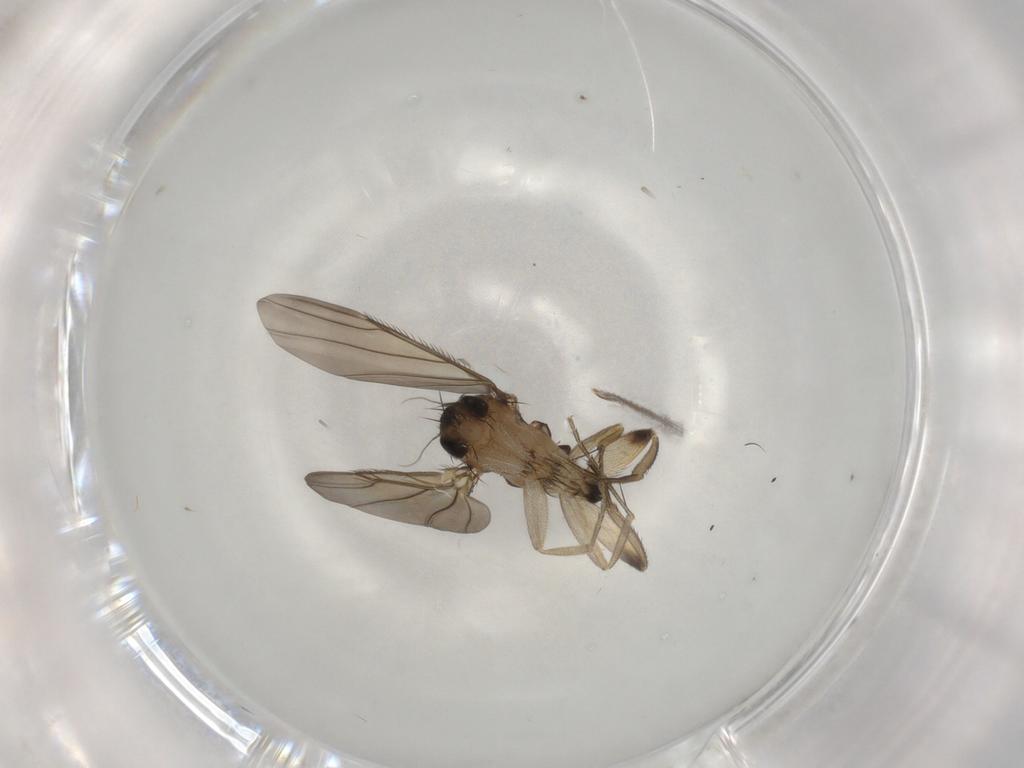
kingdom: Animalia
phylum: Arthropoda
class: Insecta
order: Diptera
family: Phoridae
